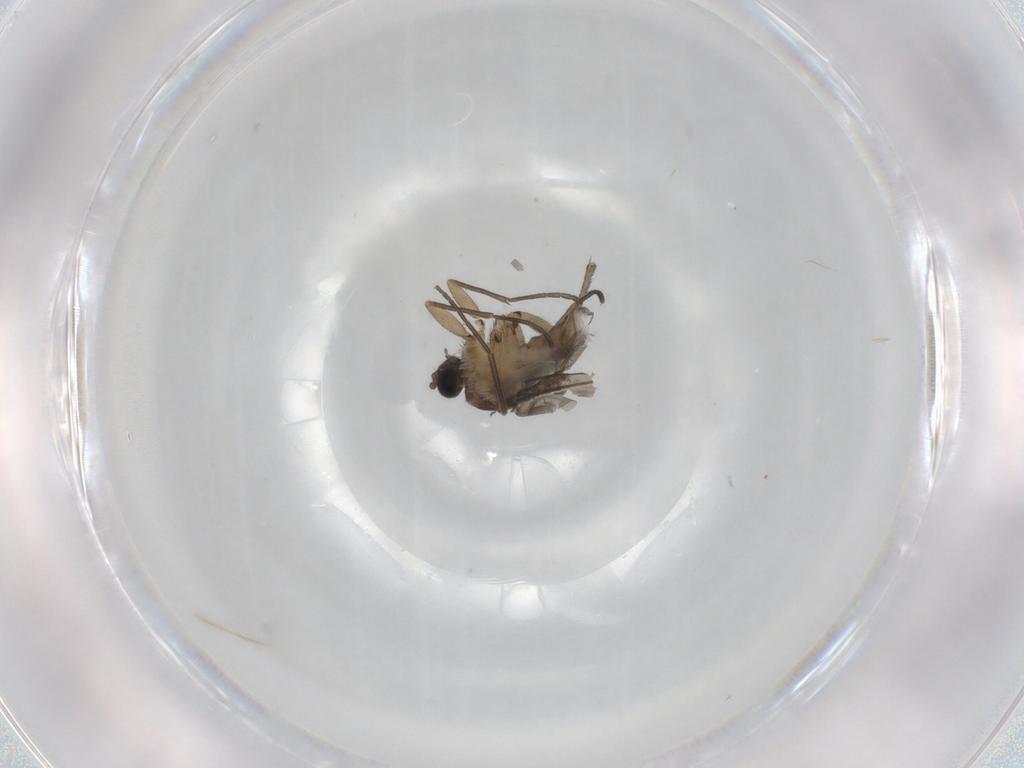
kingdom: Animalia
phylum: Arthropoda
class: Insecta
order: Diptera
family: Sciaridae
